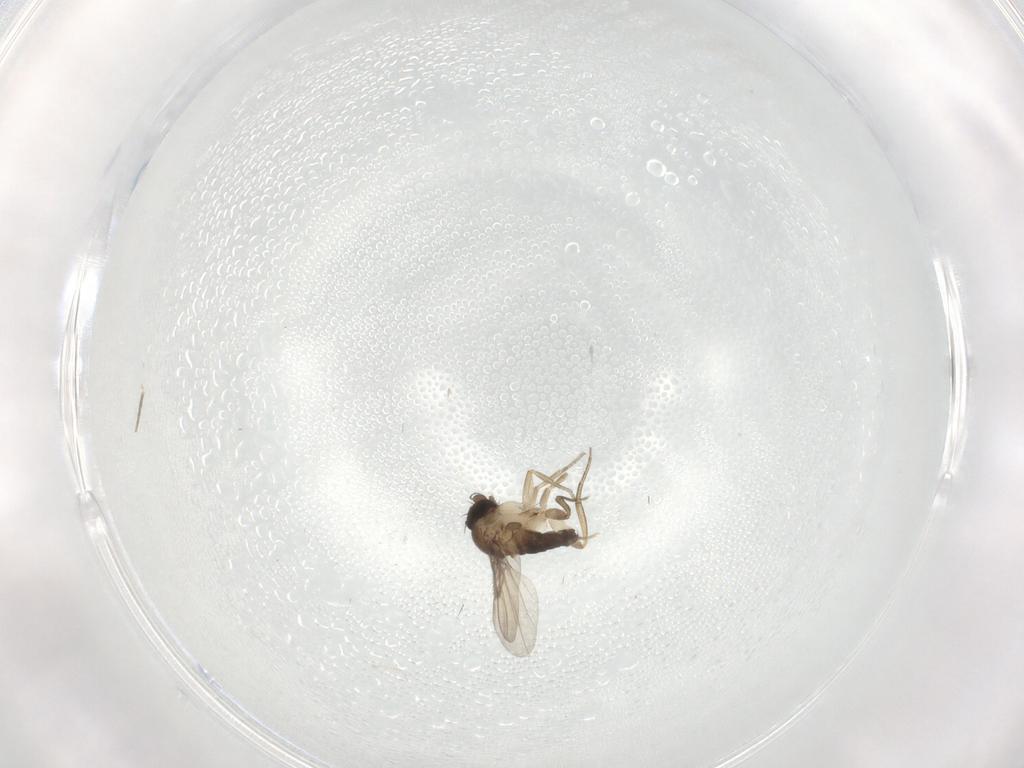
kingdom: Animalia
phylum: Arthropoda
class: Insecta
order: Diptera
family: Phoridae
